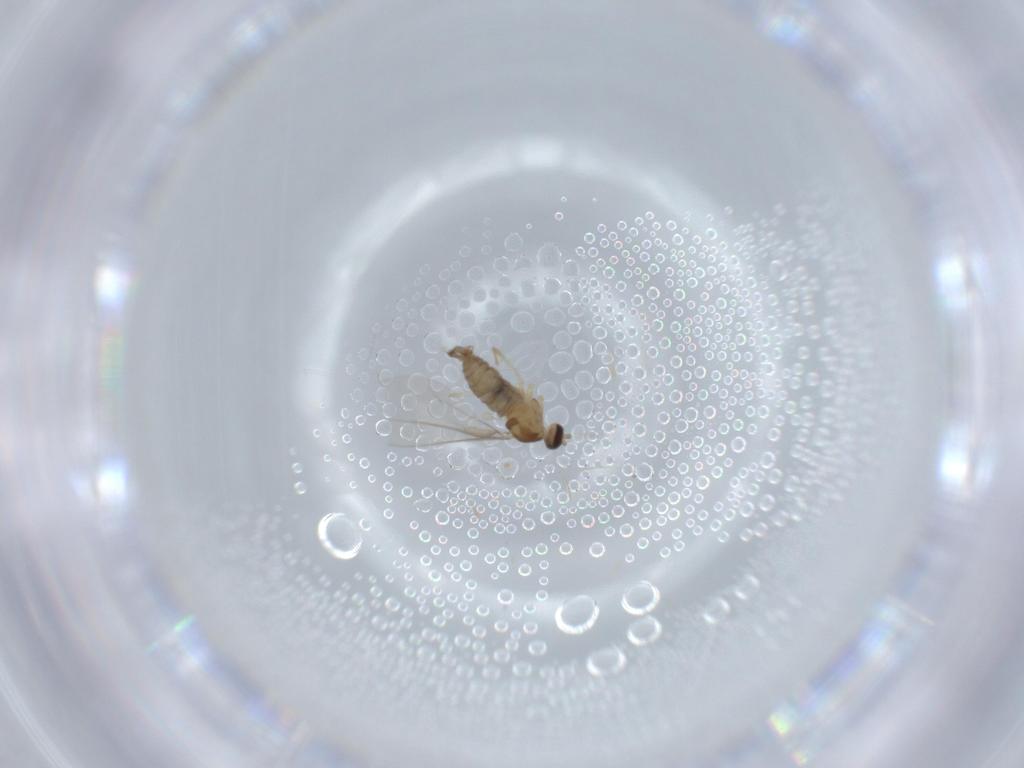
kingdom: Animalia
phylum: Arthropoda
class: Insecta
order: Diptera
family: Cecidomyiidae
